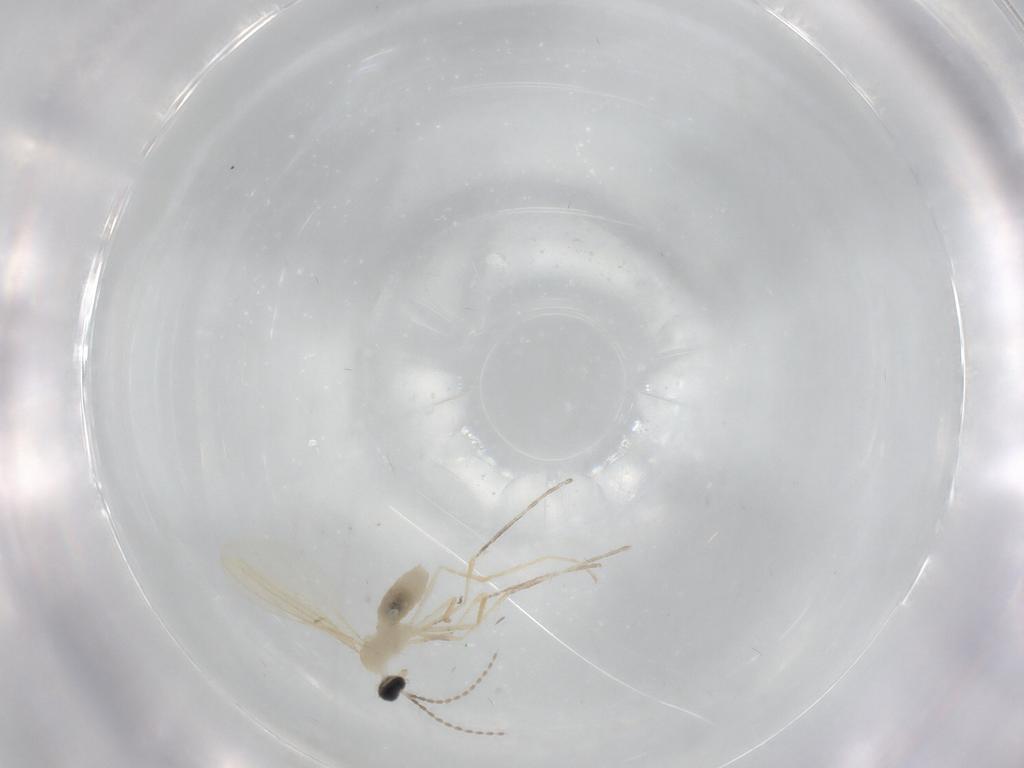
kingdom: Animalia
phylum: Arthropoda
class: Insecta
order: Diptera
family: Cecidomyiidae
